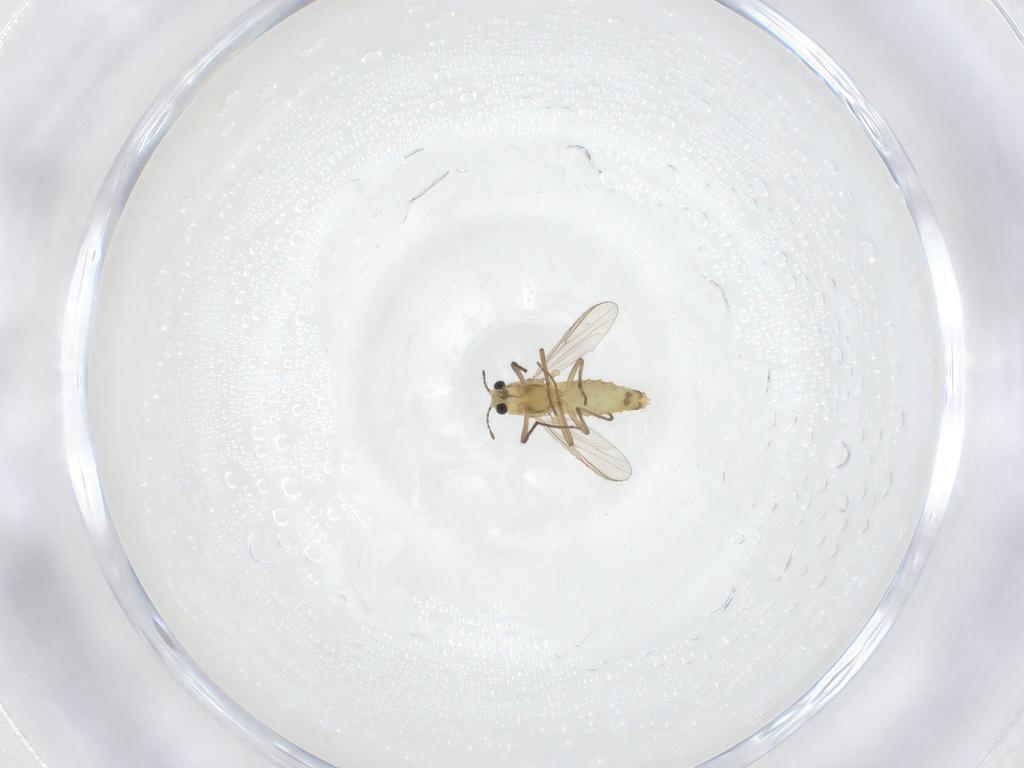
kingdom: Animalia
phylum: Arthropoda
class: Insecta
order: Diptera
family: Chironomidae
